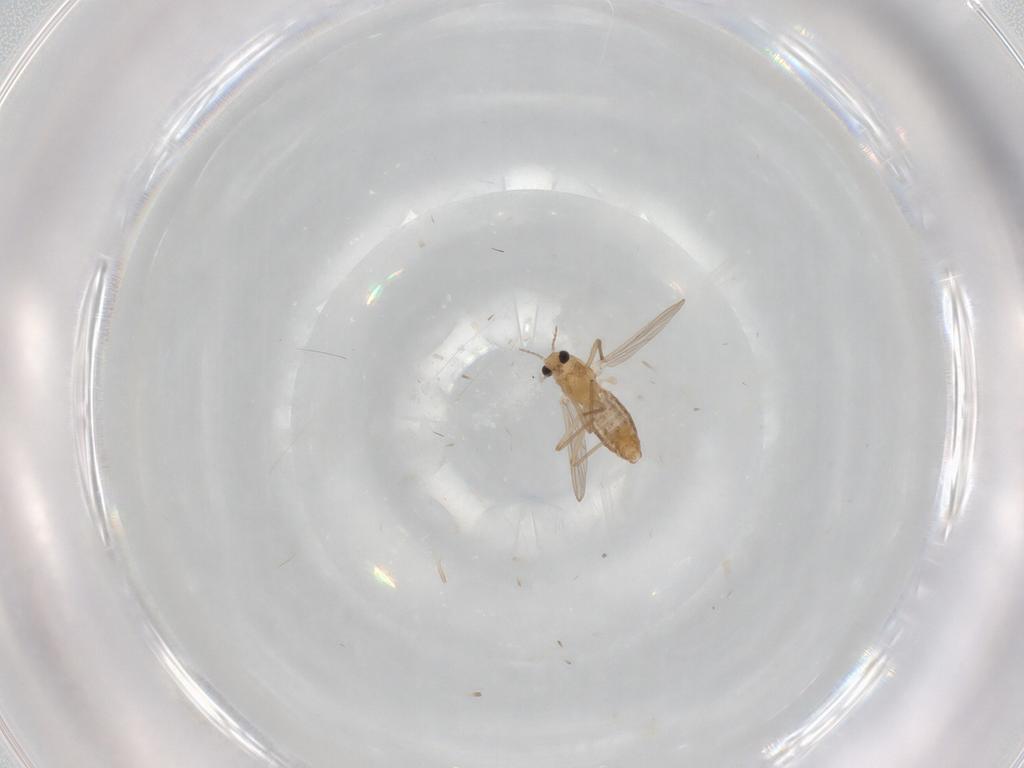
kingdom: Animalia
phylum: Arthropoda
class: Insecta
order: Diptera
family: Chironomidae
